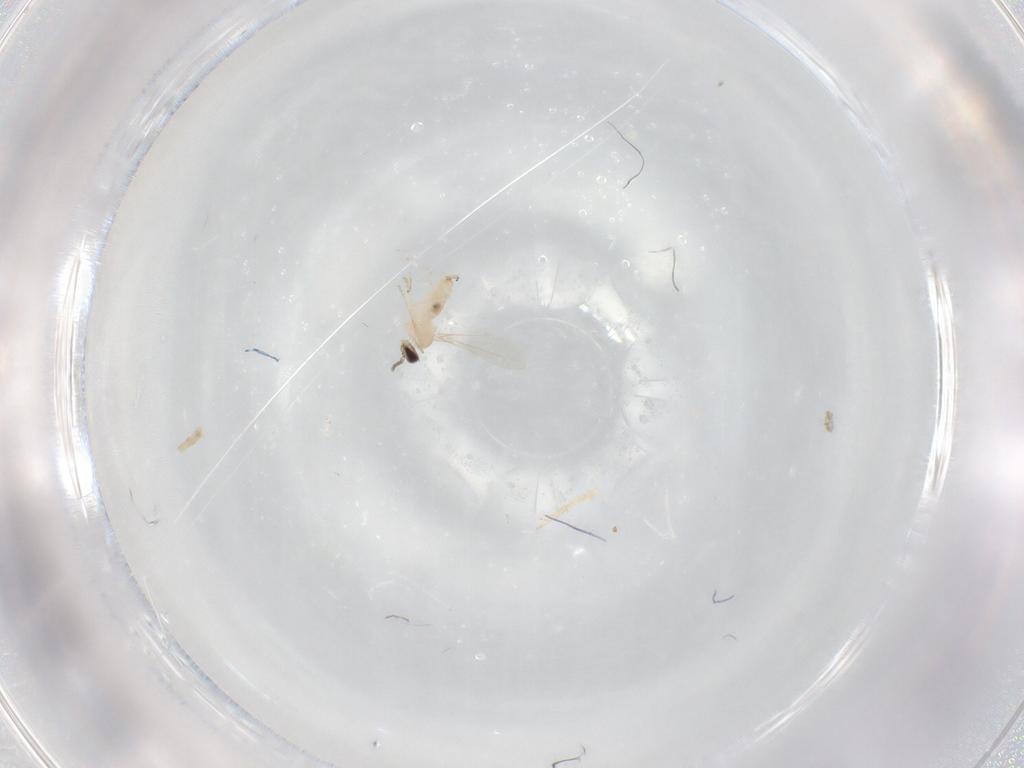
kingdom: Animalia
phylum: Arthropoda
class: Insecta
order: Diptera
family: Cecidomyiidae
